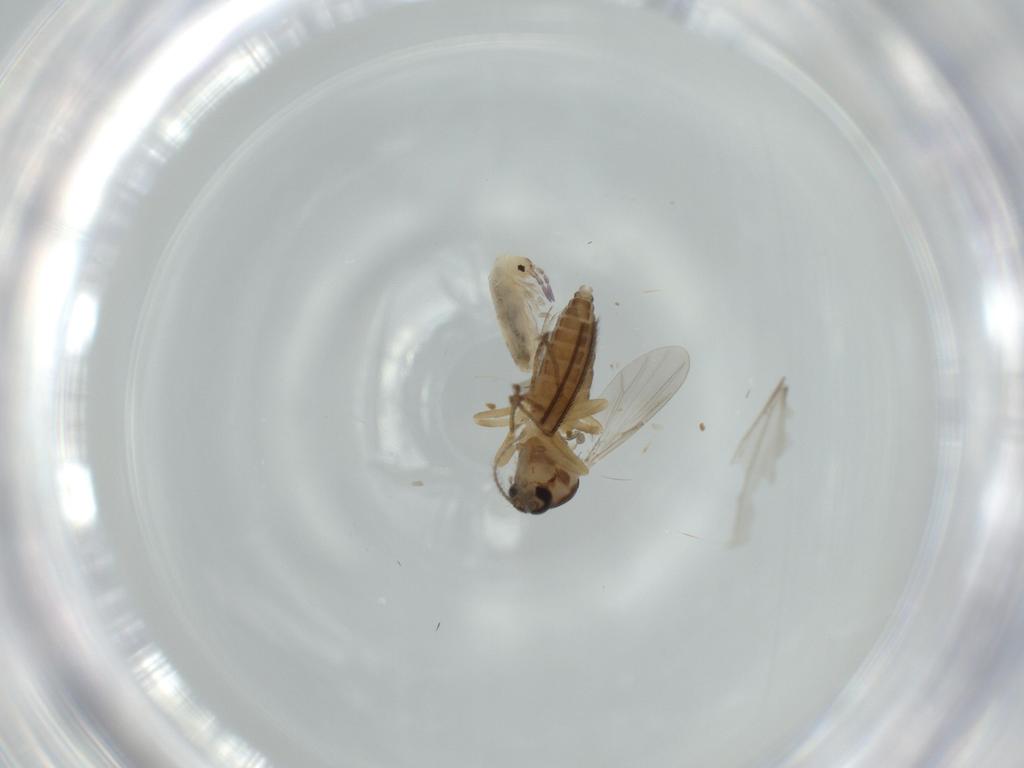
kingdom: Animalia
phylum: Arthropoda
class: Insecta
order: Diptera
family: Ceratopogonidae
